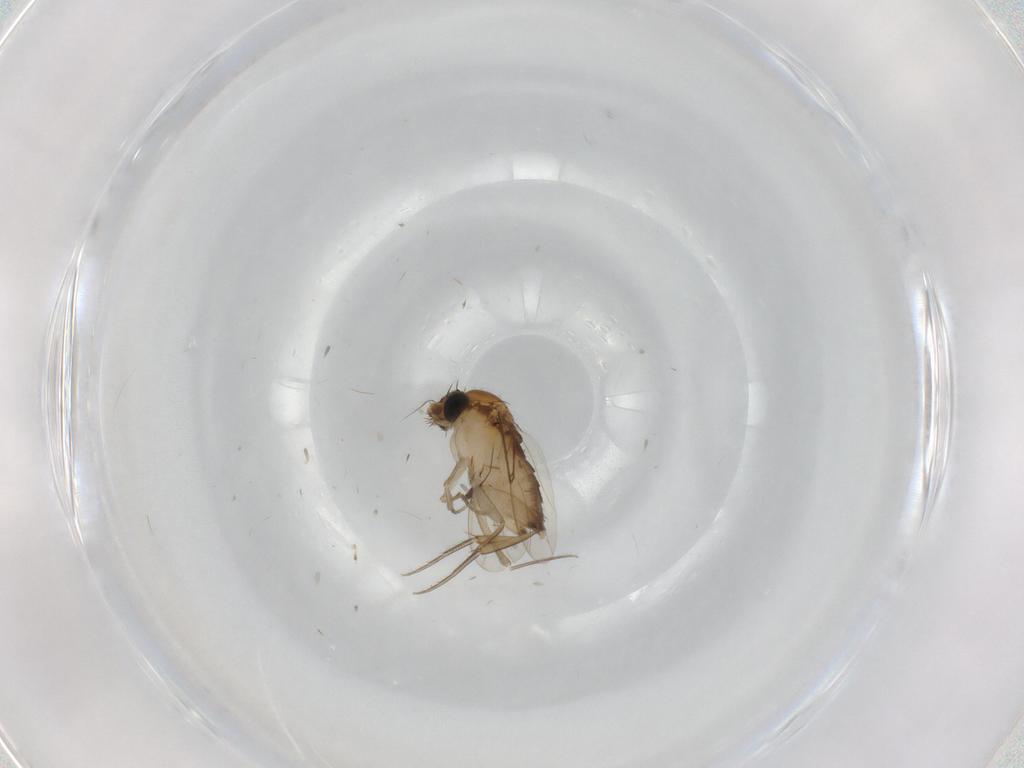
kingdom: Animalia
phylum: Arthropoda
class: Insecta
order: Diptera
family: Phoridae
